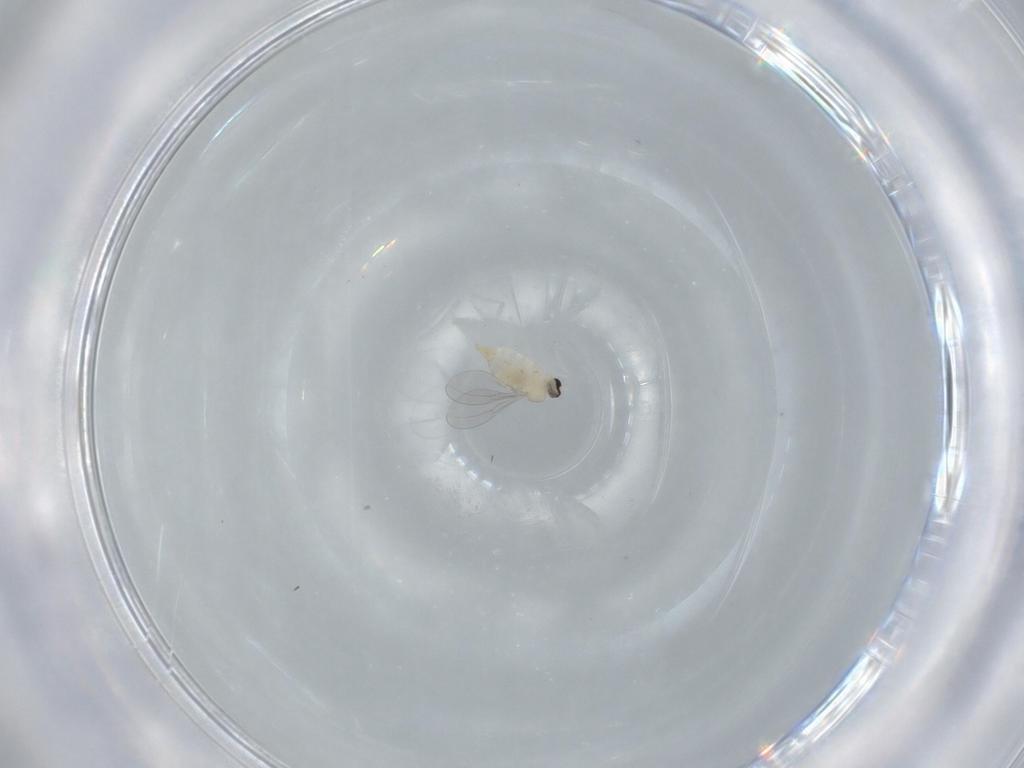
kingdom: Animalia
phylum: Arthropoda
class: Insecta
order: Diptera
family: Cecidomyiidae
